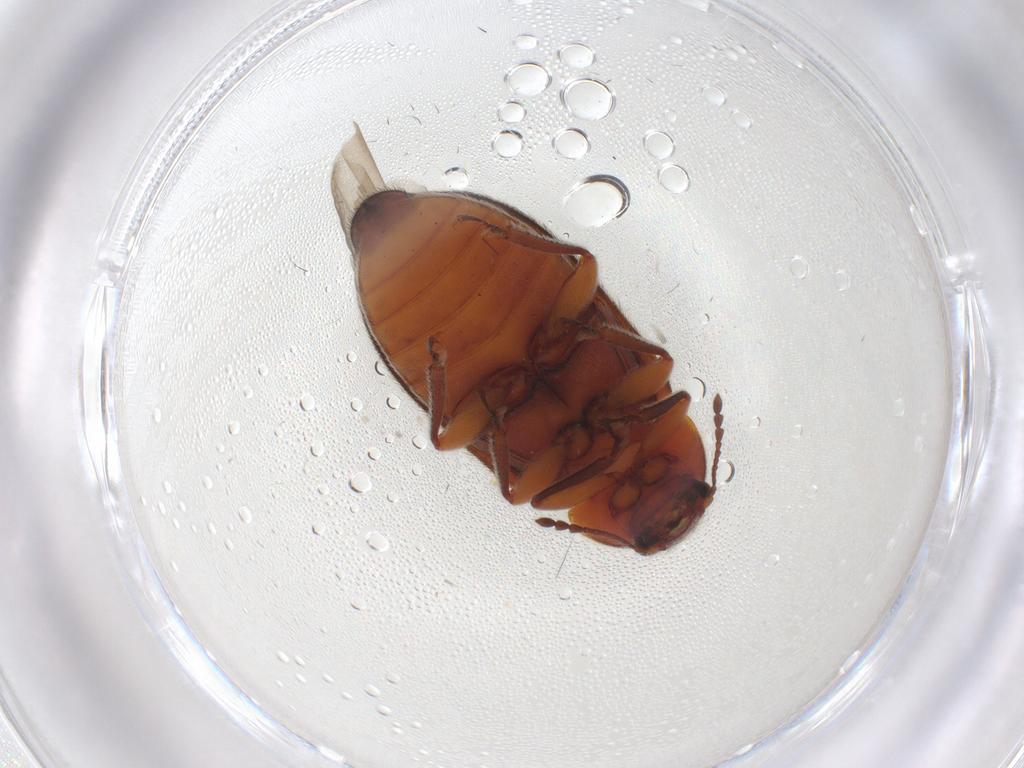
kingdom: Animalia
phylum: Arthropoda
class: Insecta
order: Coleoptera
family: Byturidae
